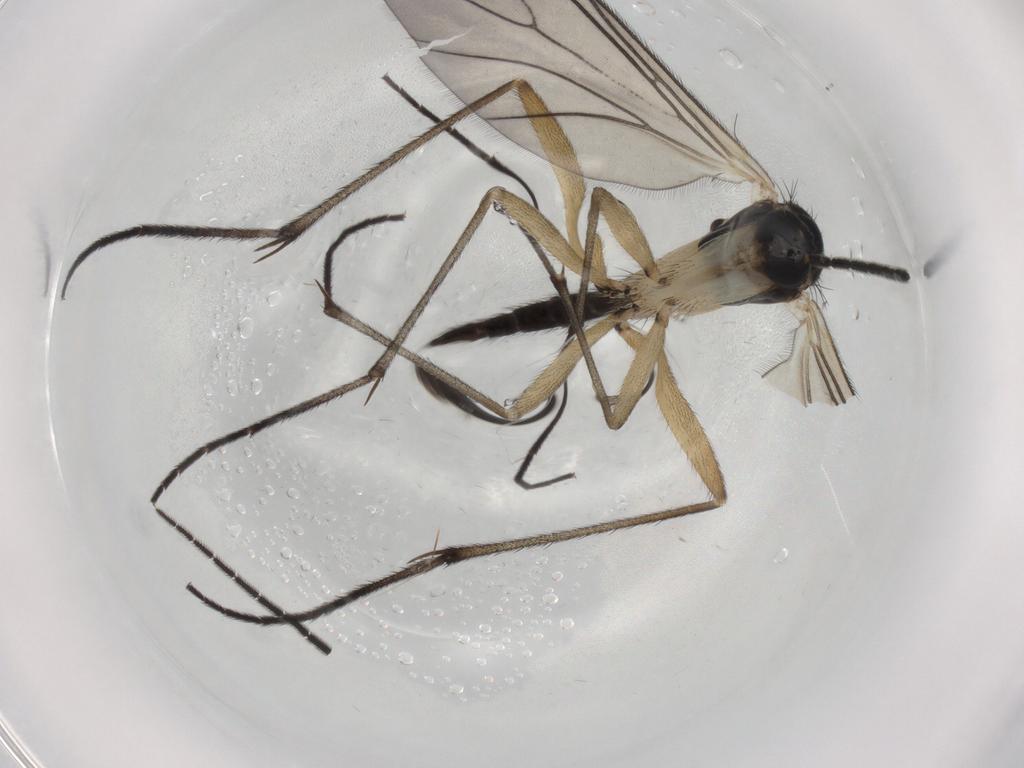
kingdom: Animalia
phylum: Arthropoda
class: Insecta
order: Diptera
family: Sciaridae
